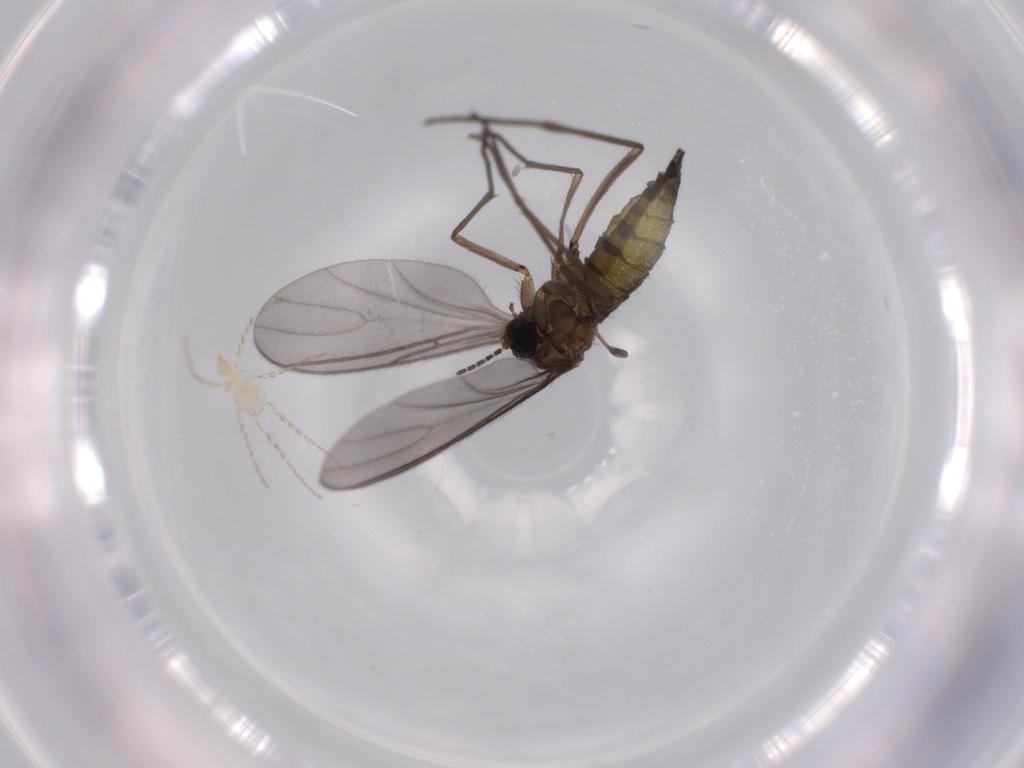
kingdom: Animalia
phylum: Arthropoda
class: Insecta
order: Diptera
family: Sciaridae
